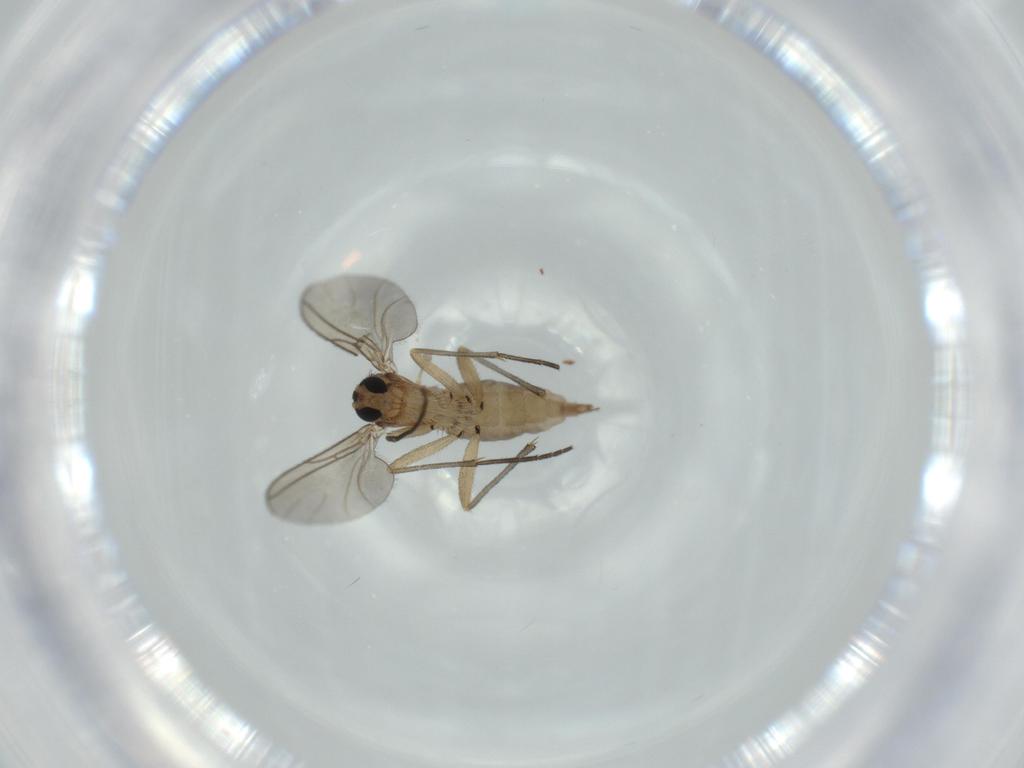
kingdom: Animalia
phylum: Arthropoda
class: Insecta
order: Diptera
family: Sciaridae
